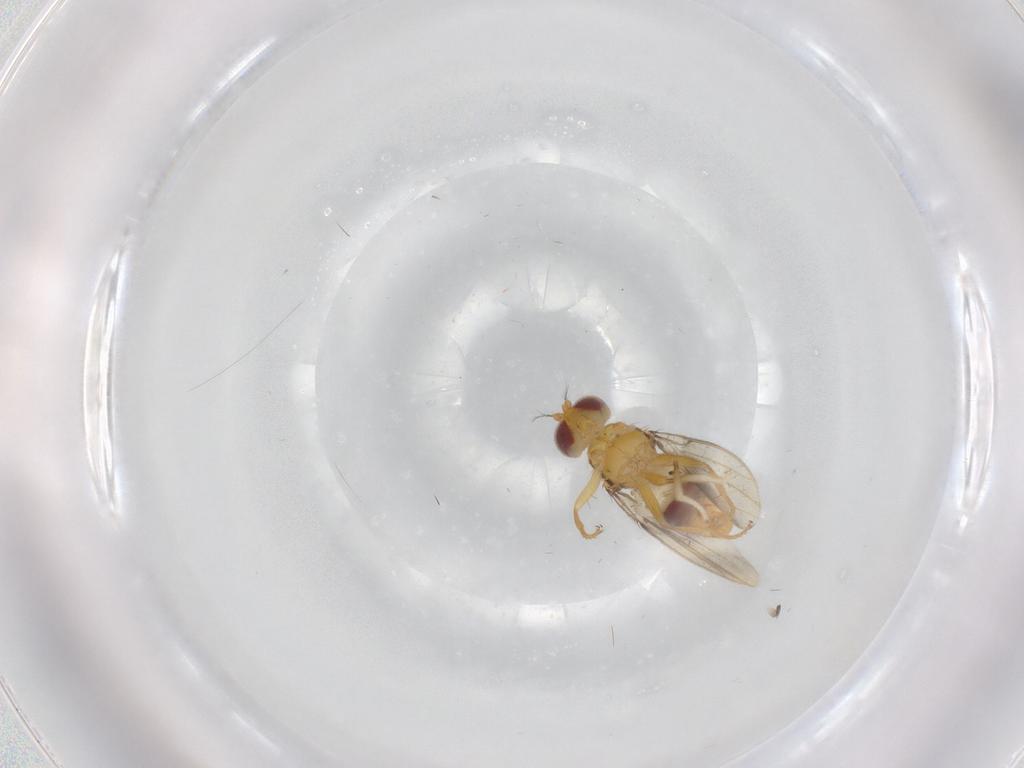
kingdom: Animalia
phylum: Arthropoda
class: Insecta
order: Diptera
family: Periscelididae
